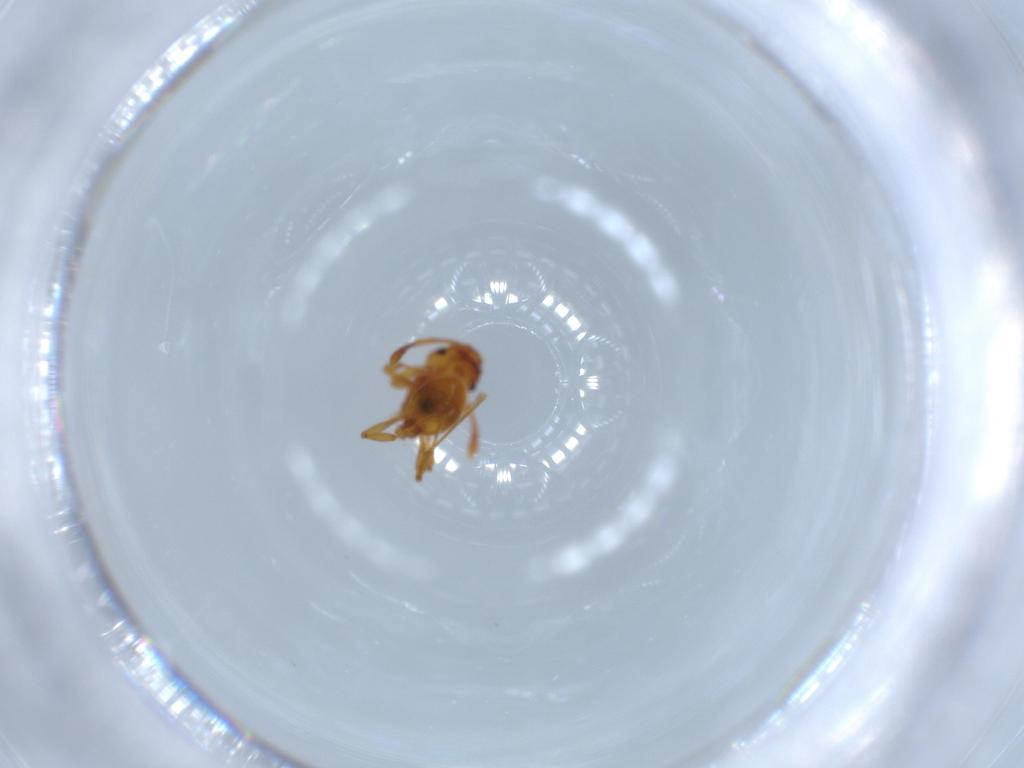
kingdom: Animalia
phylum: Arthropoda
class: Insecta
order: Hymenoptera
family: Formicidae
